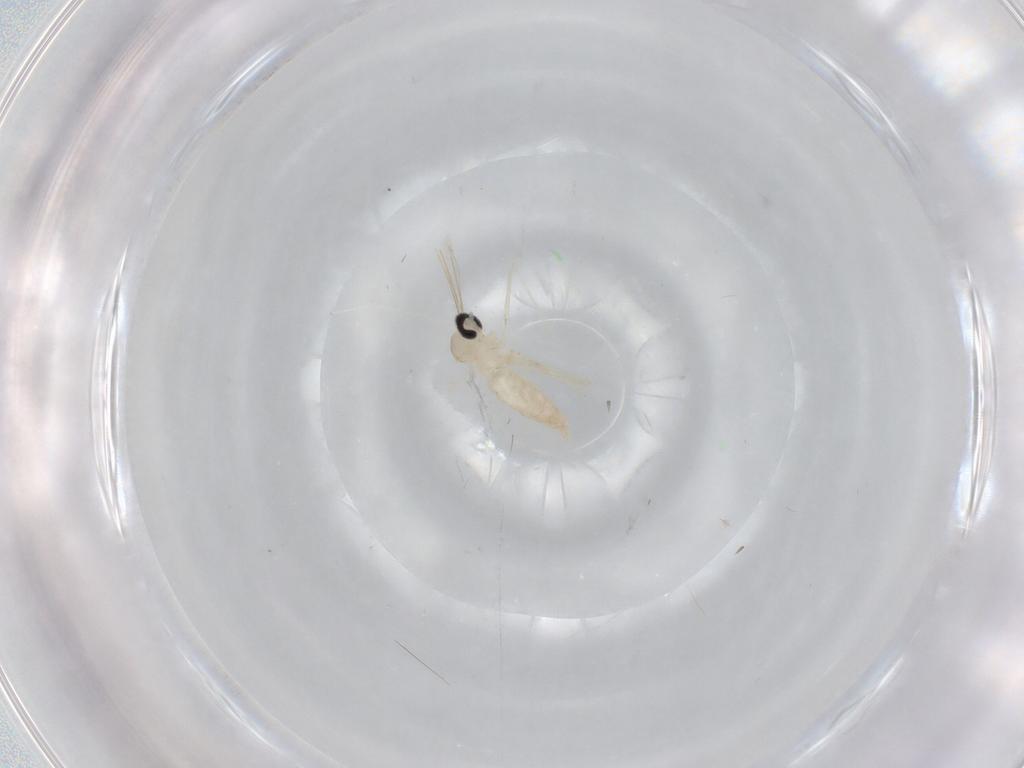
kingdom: Animalia
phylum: Arthropoda
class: Insecta
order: Diptera
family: Cecidomyiidae
